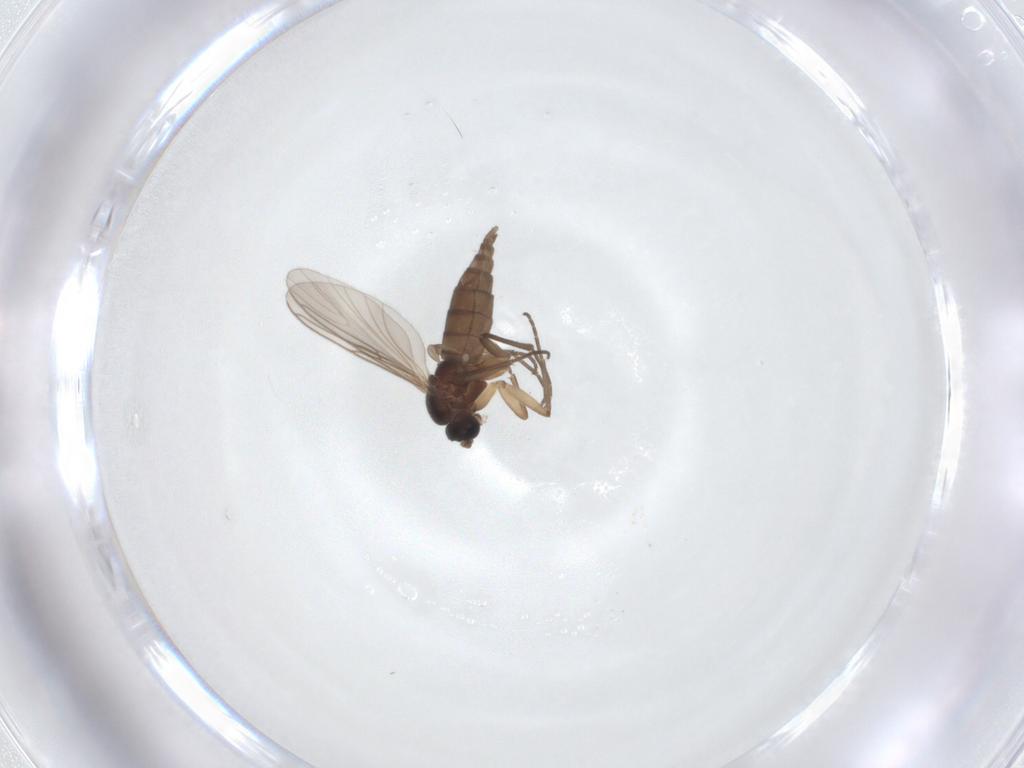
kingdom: Animalia
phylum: Arthropoda
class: Insecta
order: Diptera
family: Sciaridae
